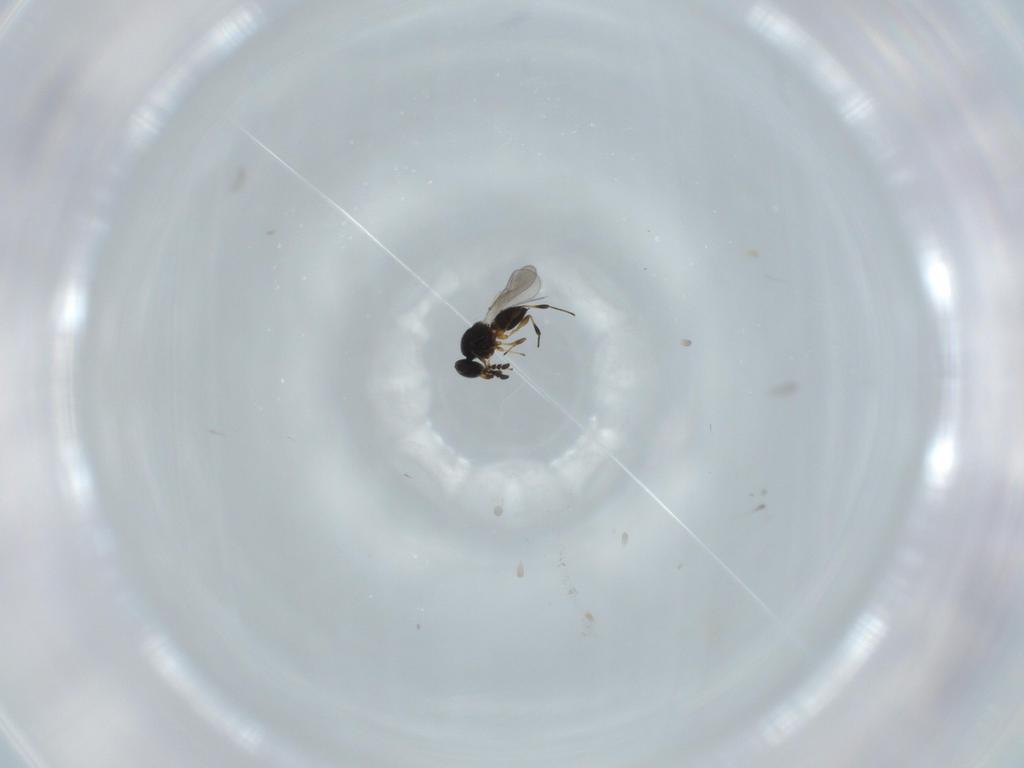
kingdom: Animalia
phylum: Arthropoda
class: Insecta
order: Hymenoptera
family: Platygastridae
